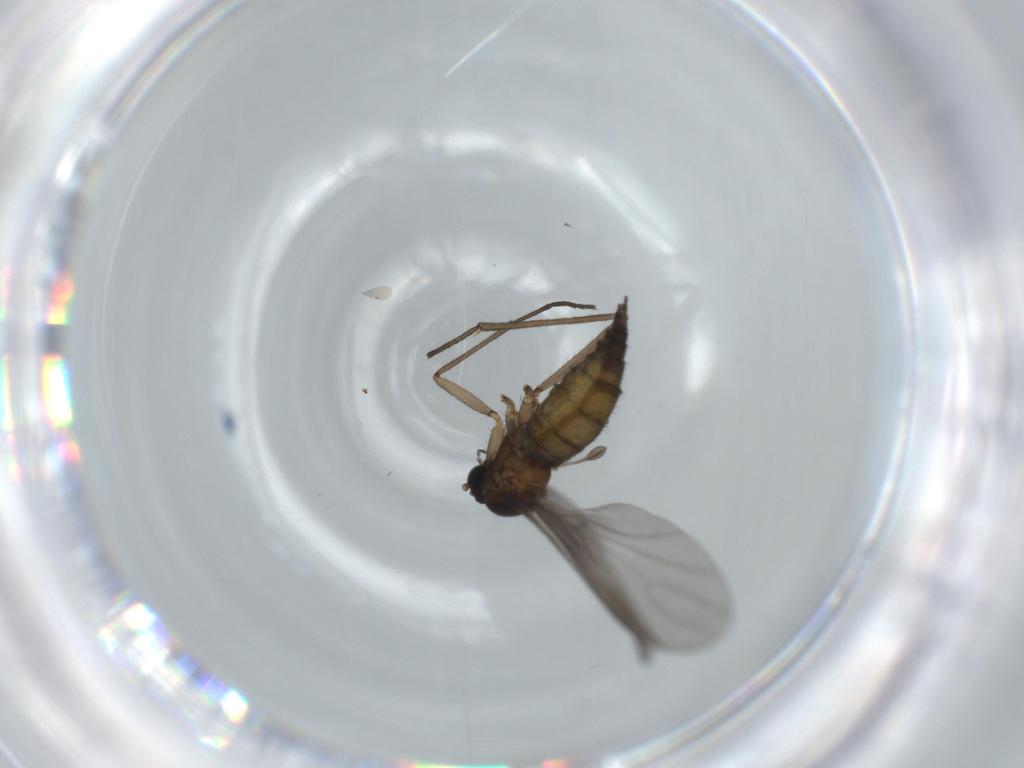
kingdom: Animalia
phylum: Arthropoda
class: Insecta
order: Diptera
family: Sciaridae
